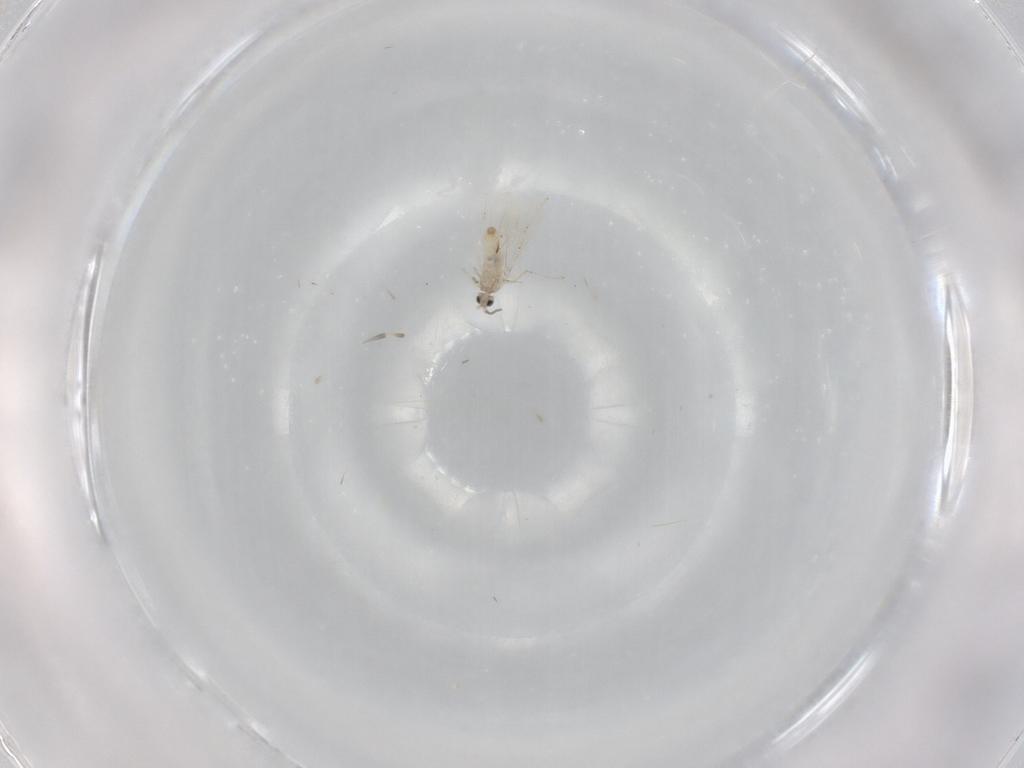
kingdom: Animalia
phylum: Arthropoda
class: Insecta
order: Diptera
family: Cecidomyiidae
